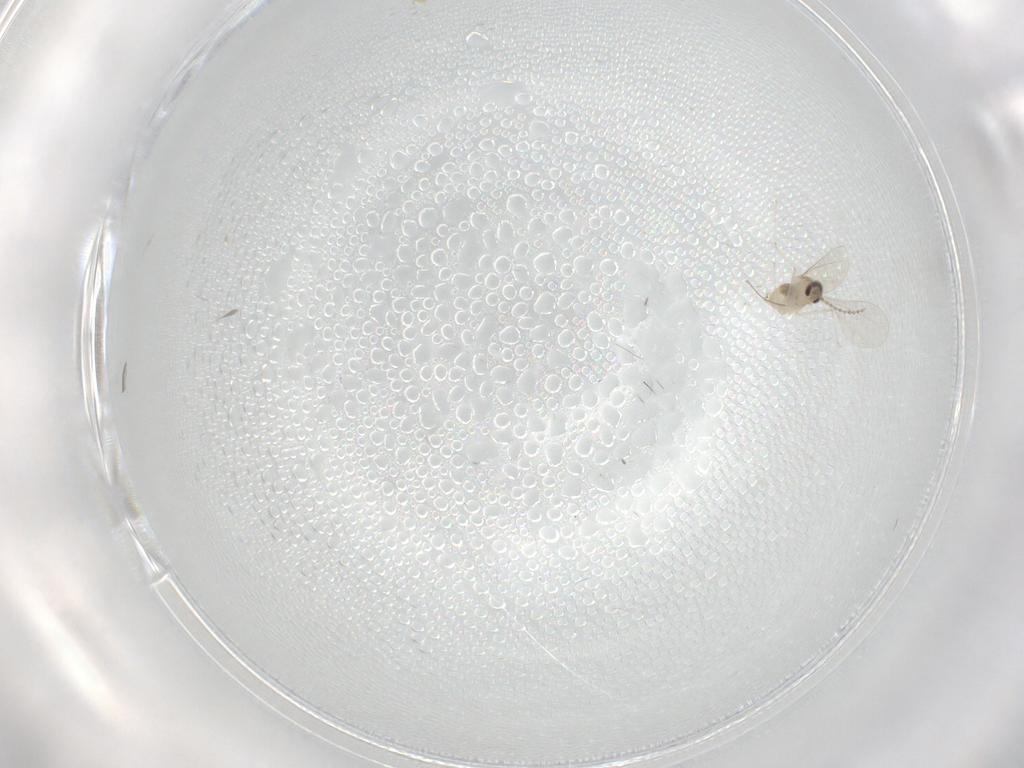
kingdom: Animalia
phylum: Arthropoda
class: Insecta
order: Diptera
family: Cecidomyiidae
